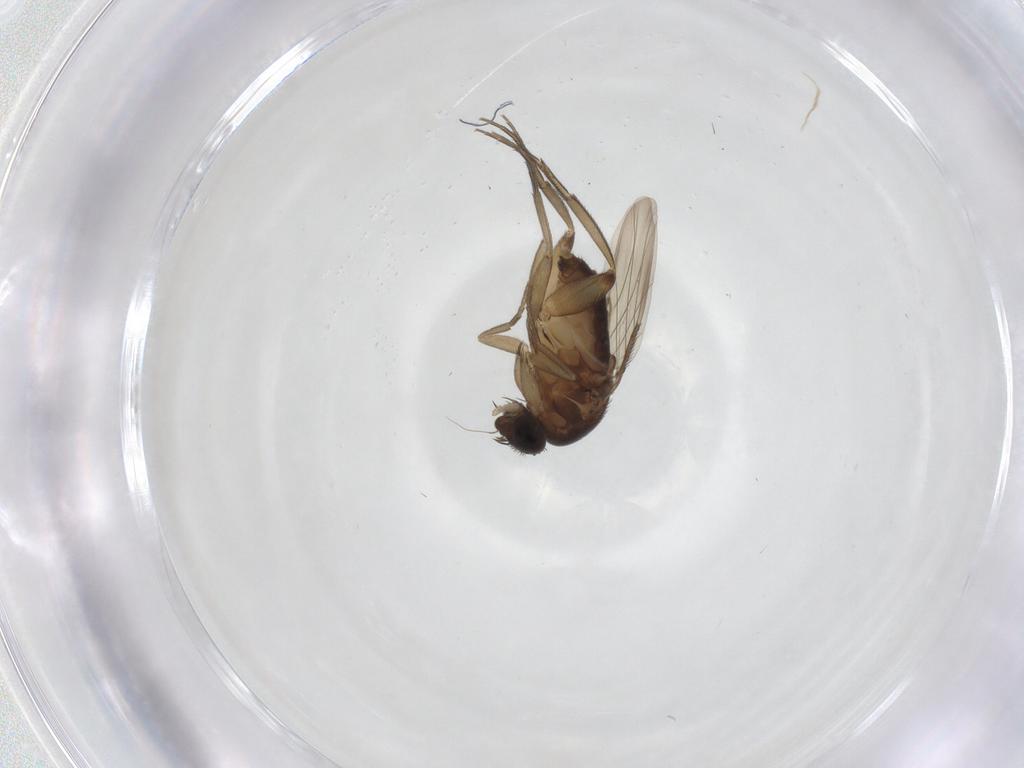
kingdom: Animalia
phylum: Arthropoda
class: Insecta
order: Diptera
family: Phoridae
